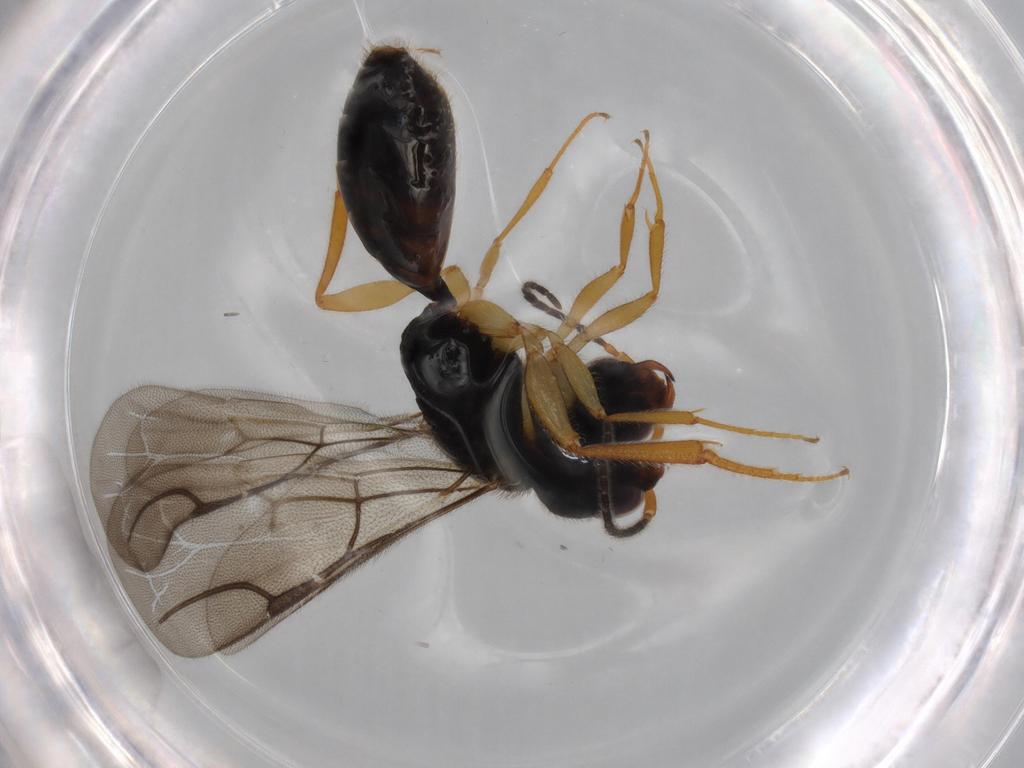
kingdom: Animalia
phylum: Arthropoda
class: Insecta
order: Hymenoptera
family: Bethylidae
